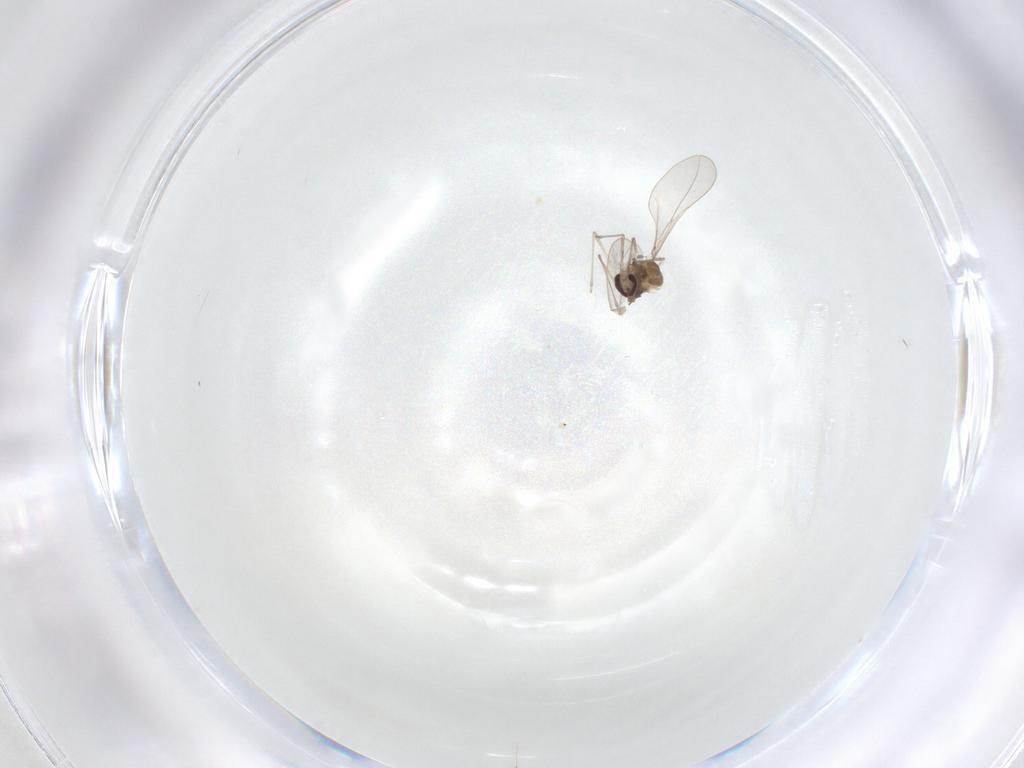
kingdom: Animalia
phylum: Arthropoda
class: Insecta
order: Diptera
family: Cecidomyiidae
